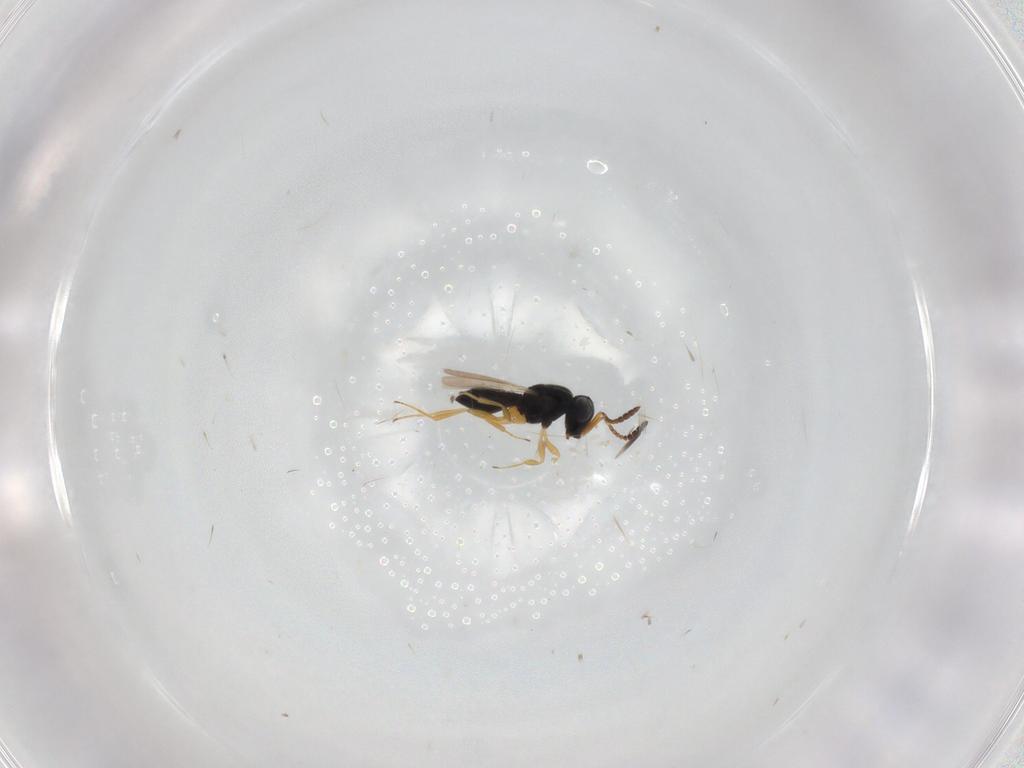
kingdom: Animalia
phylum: Arthropoda
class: Insecta
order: Hymenoptera
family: Scelionidae
